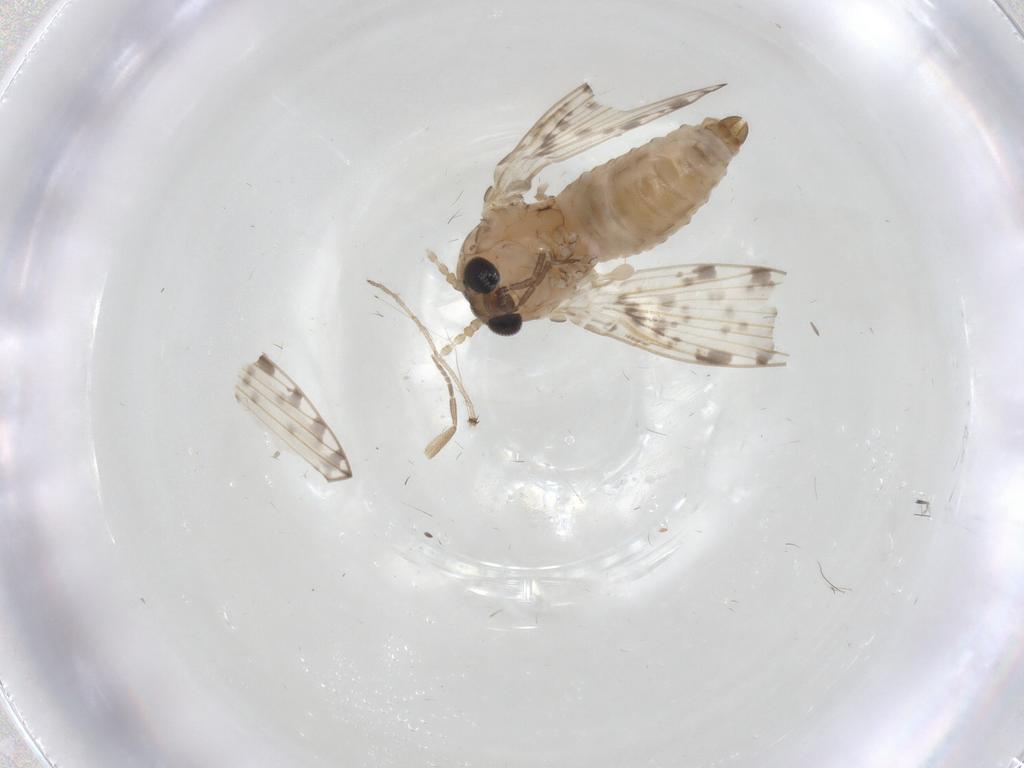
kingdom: Animalia
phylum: Arthropoda
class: Insecta
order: Diptera
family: Psychodidae
